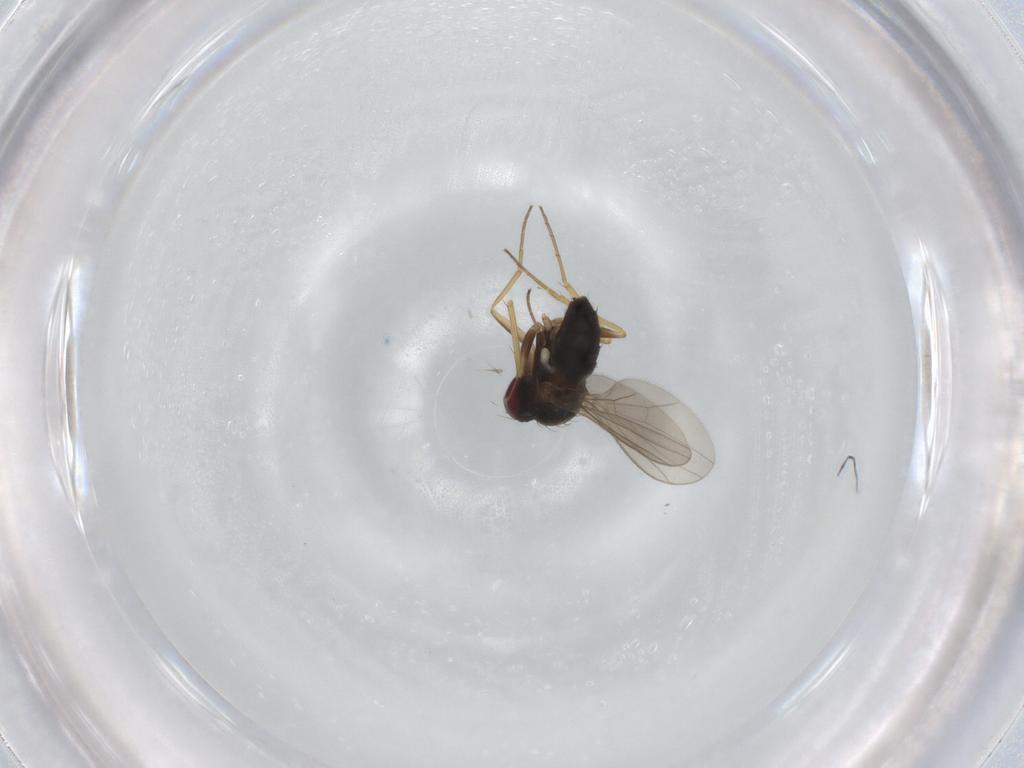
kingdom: Animalia
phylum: Arthropoda
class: Insecta
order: Diptera
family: Dolichopodidae
